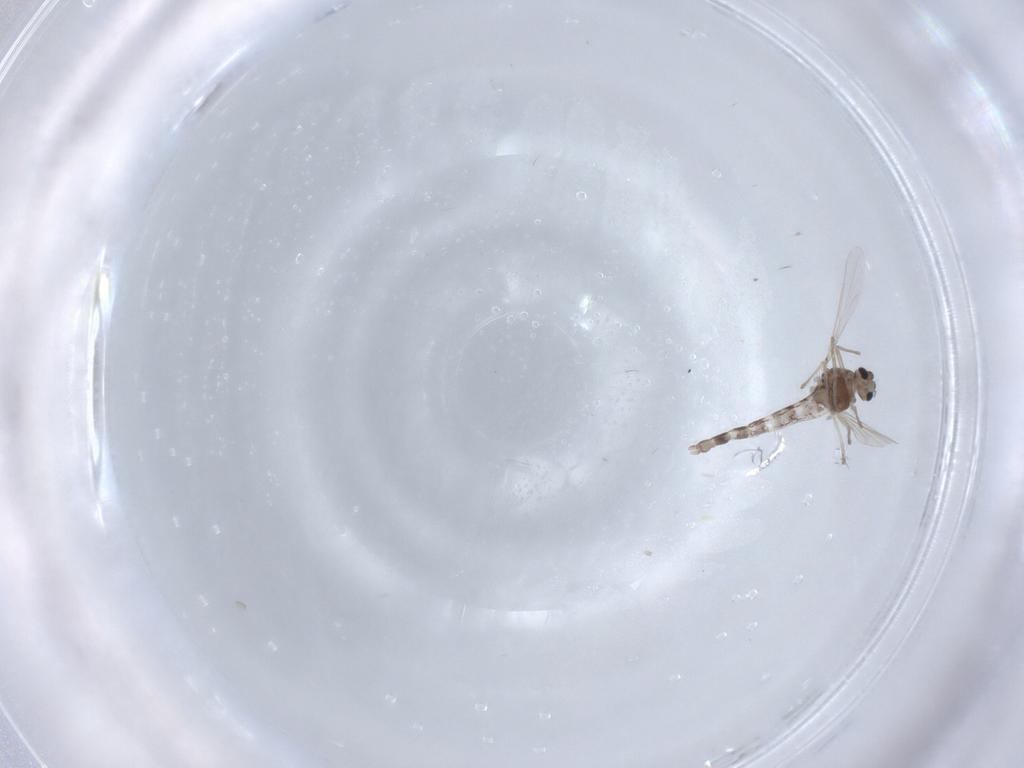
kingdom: Animalia
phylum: Arthropoda
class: Insecta
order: Diptera
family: Chironomidae
